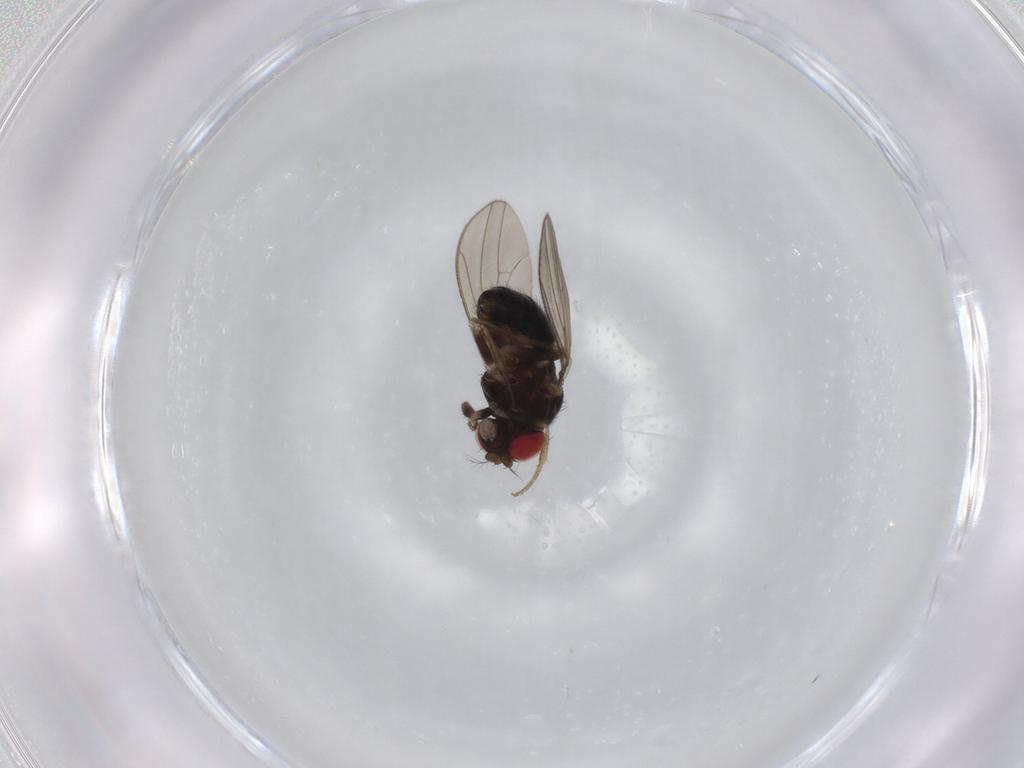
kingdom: Animalia
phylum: Arthropoda
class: Insecta
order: Diptera
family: Drosophilidae
